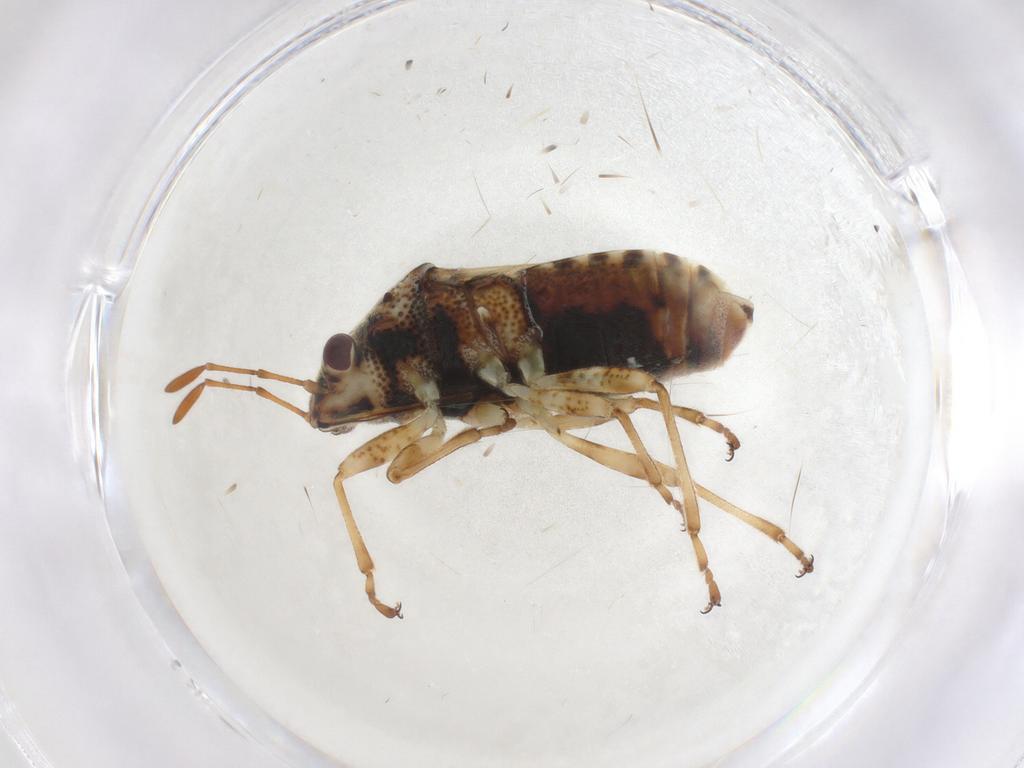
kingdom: Animalia
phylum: Arthropoda
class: Insecta
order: Hemiptera
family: Lygaeidae
